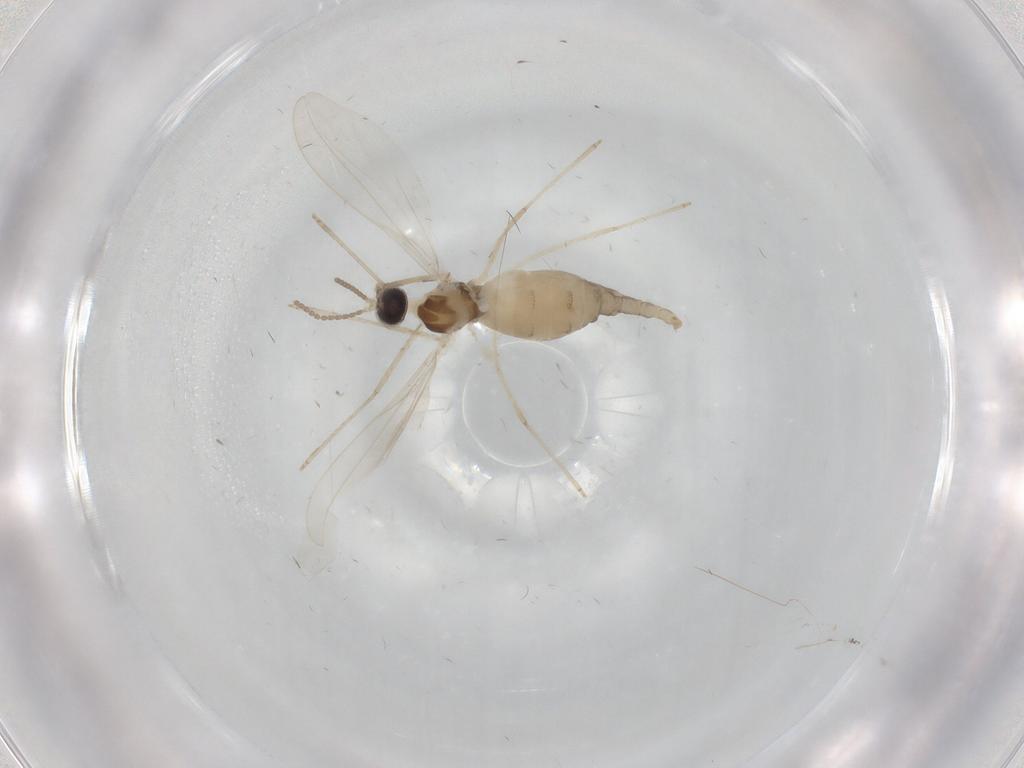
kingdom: Animalia
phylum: Arthropoda
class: Insecta
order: Diptera
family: Cecidomyiidae
